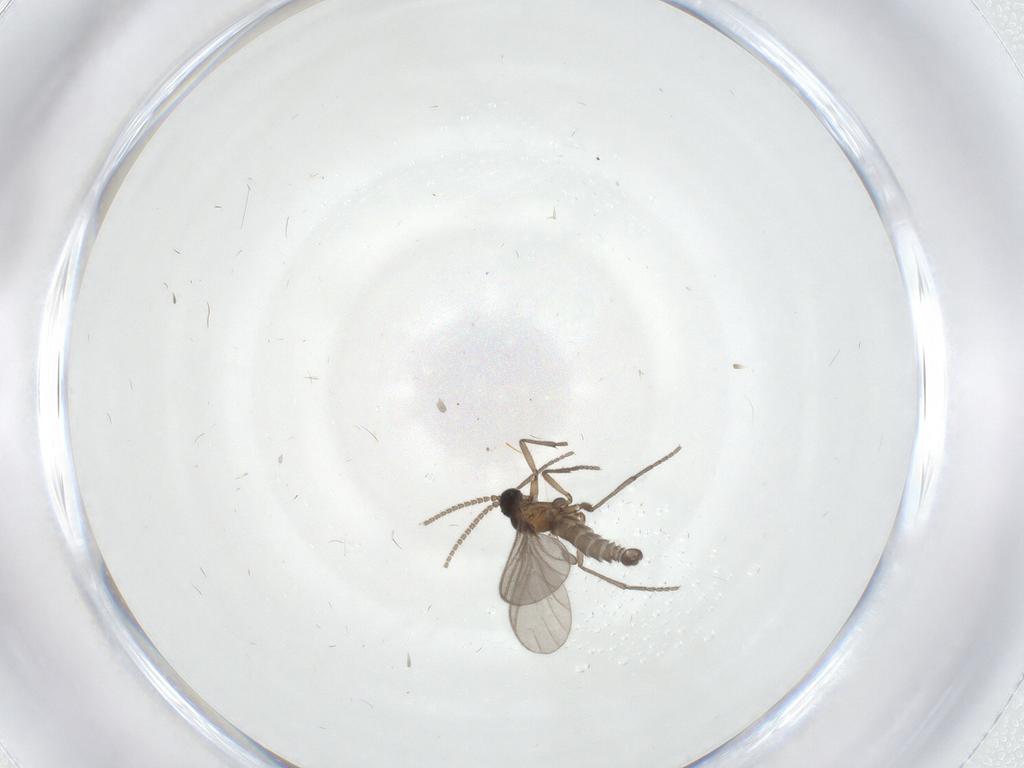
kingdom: Animalia
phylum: Arthropoda
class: Insecta
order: Diptera
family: Sciaridae
